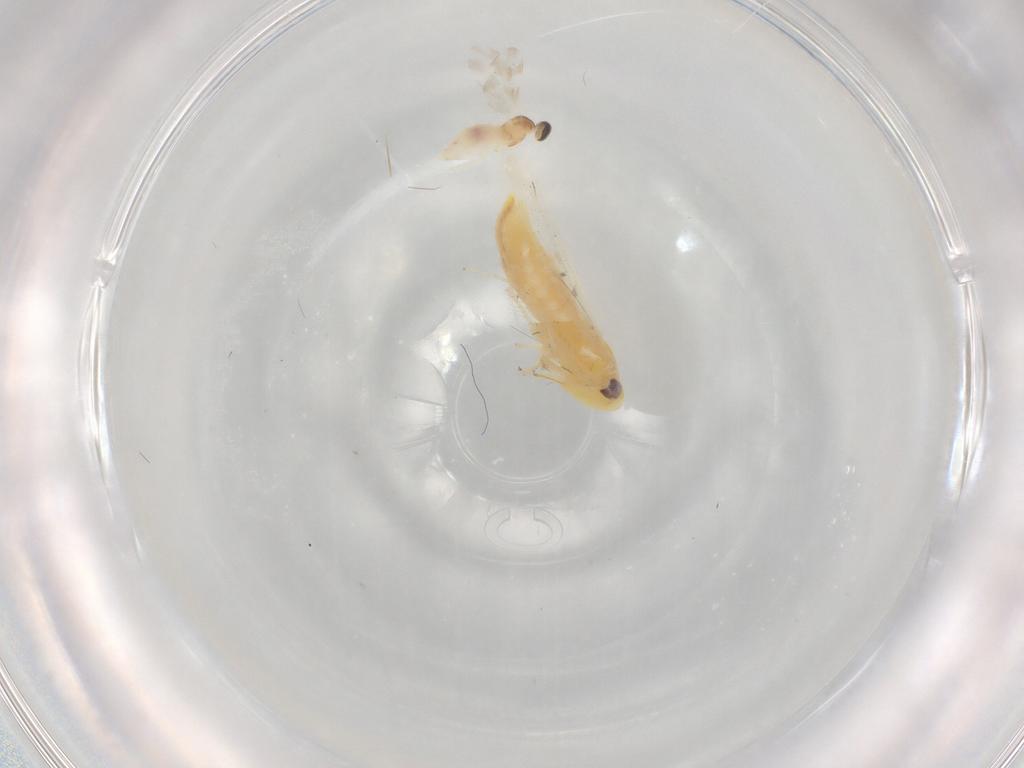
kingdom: Animalia
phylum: Arthropoda
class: Insecta
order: Diptera
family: Cecidomyiidae
